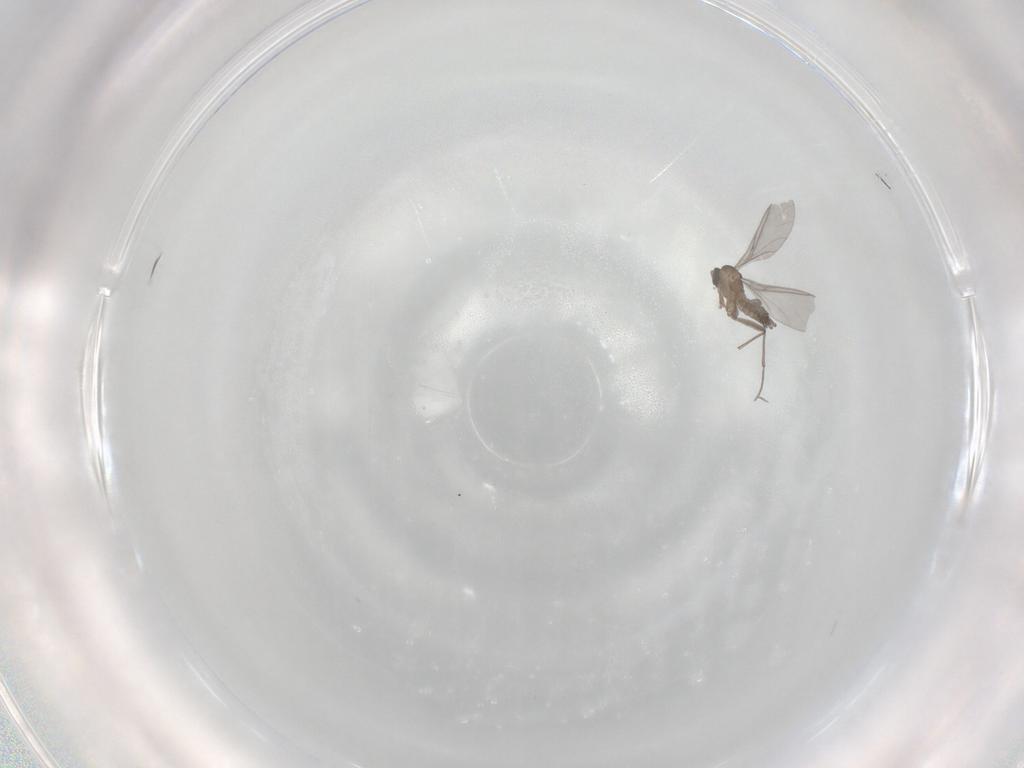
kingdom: Animalia
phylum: Arthropoda
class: Insecta
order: Diptera
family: Sciaridae
